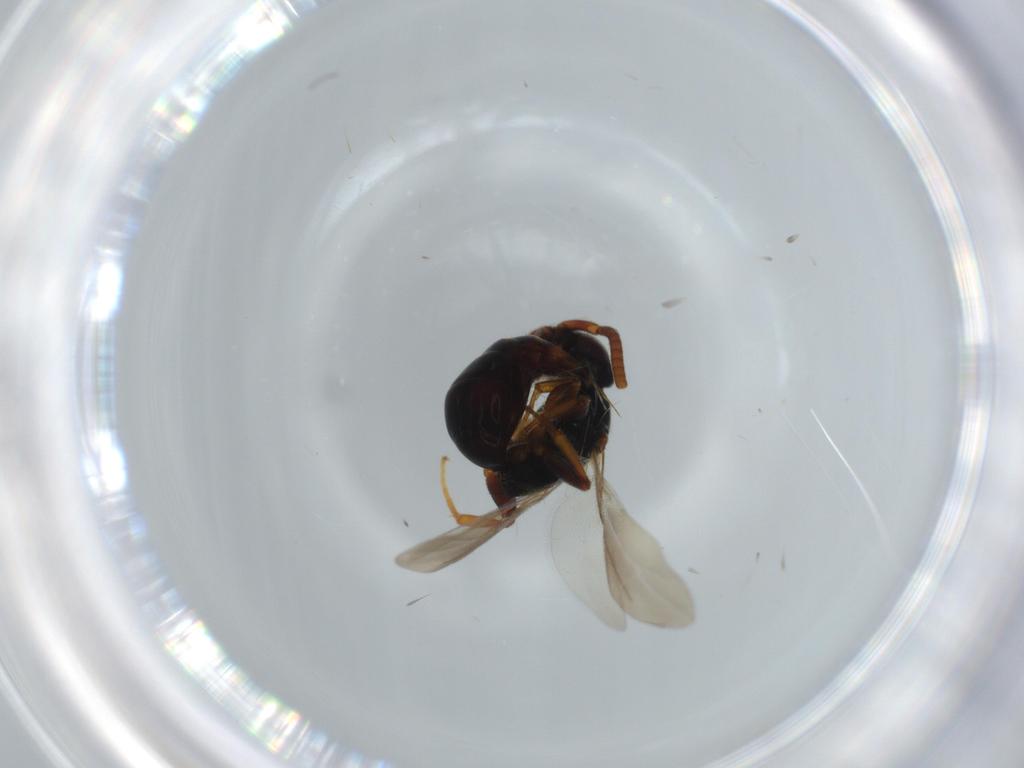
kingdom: Animalia
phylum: Arthropoda
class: Insecta
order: Hymenoptera
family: Bethylidae
